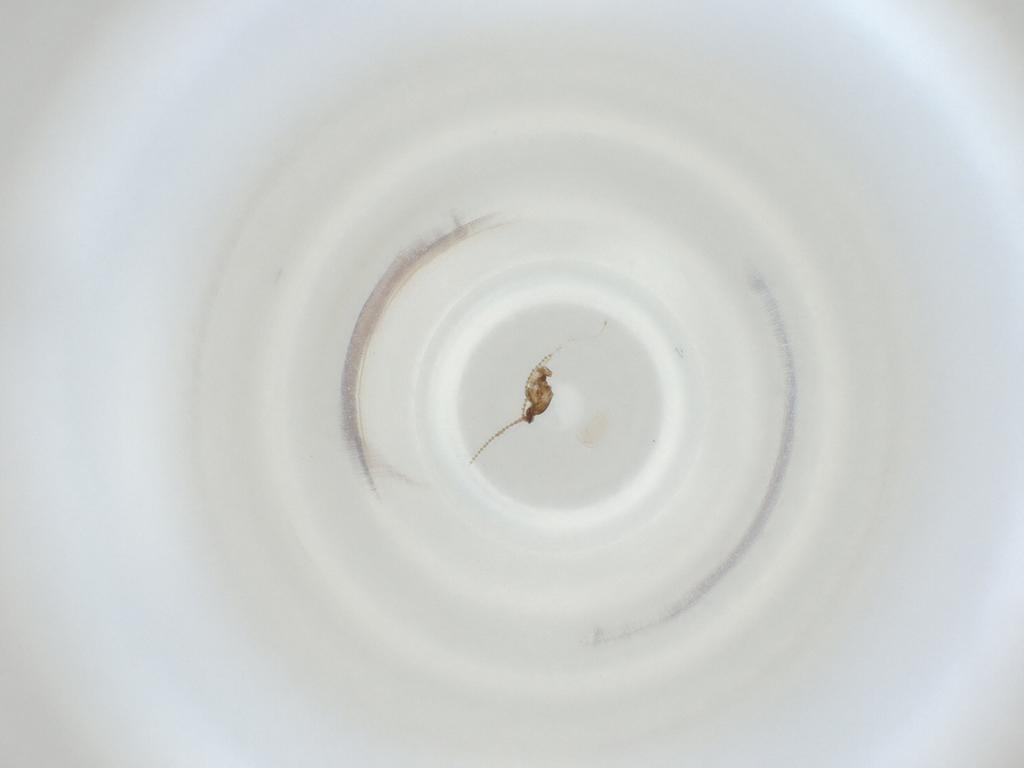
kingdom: Animalia
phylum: Arthropoda
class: Insecta
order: Diptera
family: Cecidomyiidae
